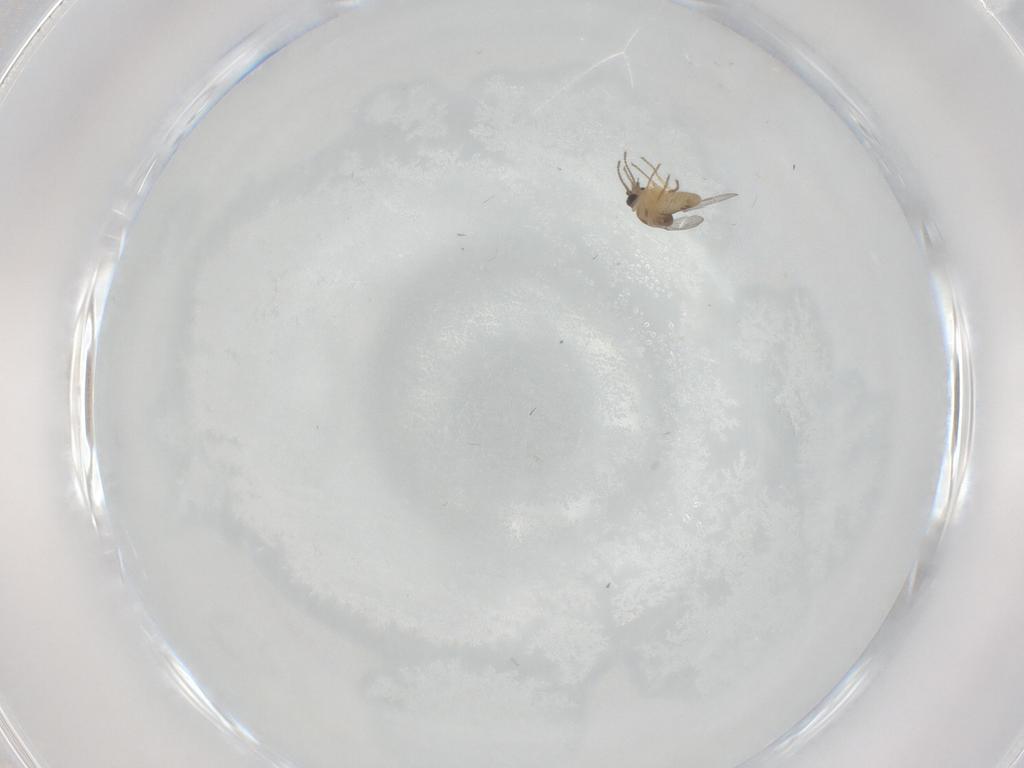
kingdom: Animalia
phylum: Arthropoda
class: Insecta
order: Diptera
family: Ceratopogonidae
